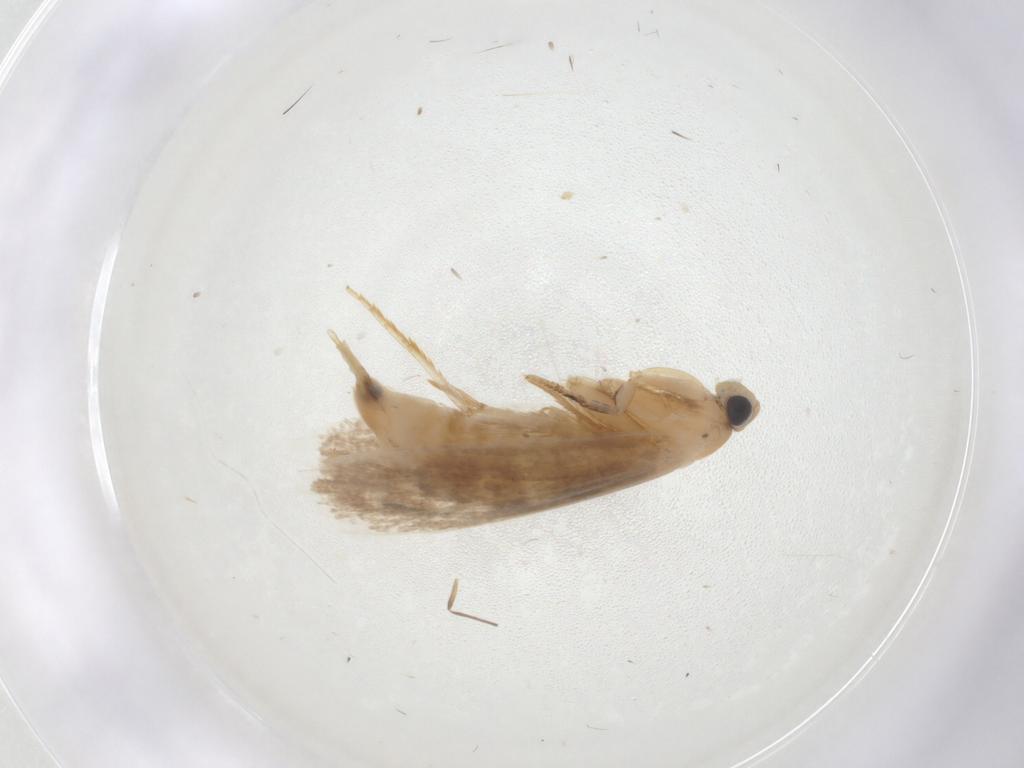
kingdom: Animalia
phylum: Arthropoda
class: Insecta
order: Lepidoptera
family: Tineidae
